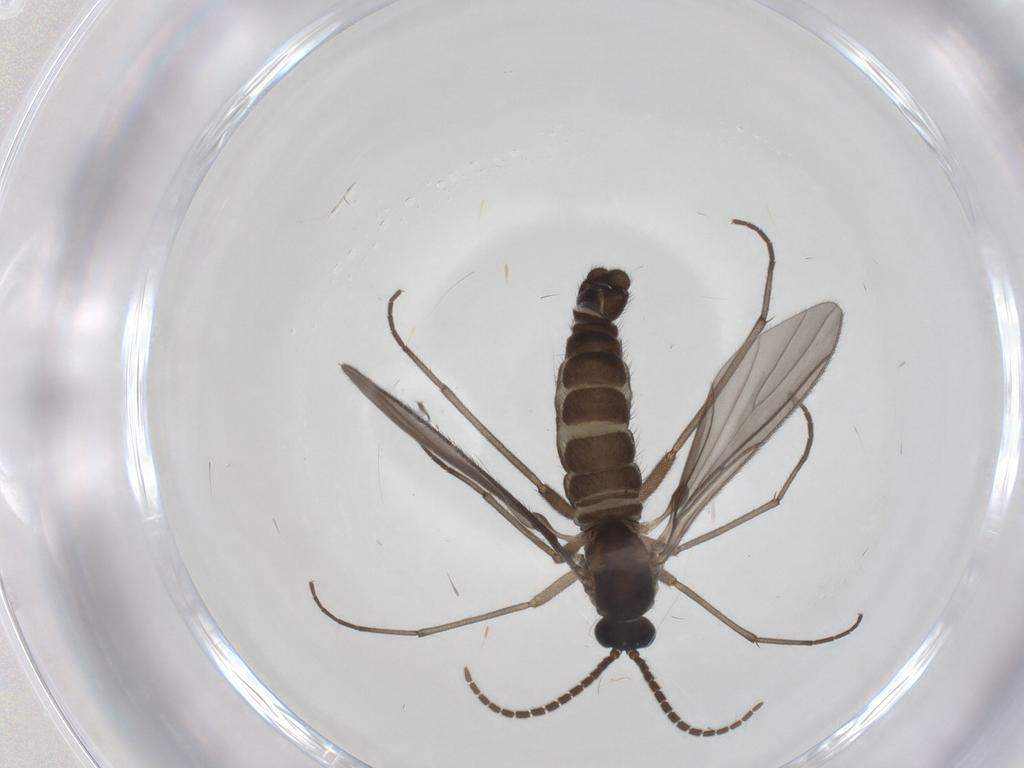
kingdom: Animalia
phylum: Arthropoda
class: Insecta
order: Diptera
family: Sciaridae
